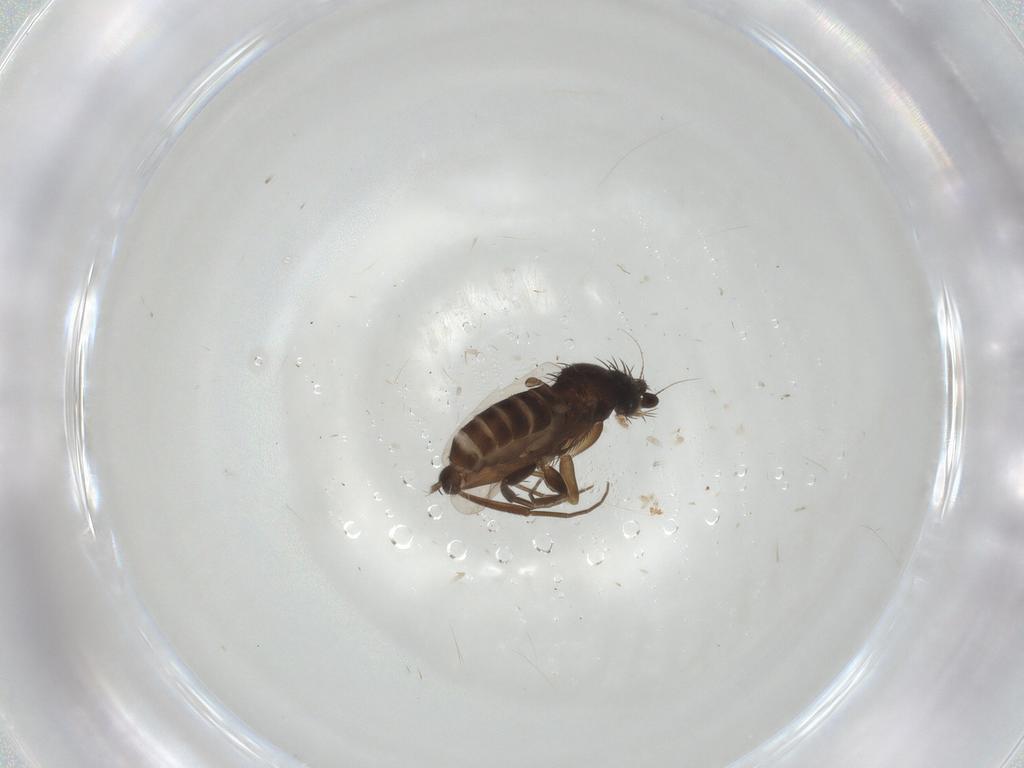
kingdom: Animalia
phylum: Arthropoda
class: Insecta
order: Diptera
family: Phoridae
